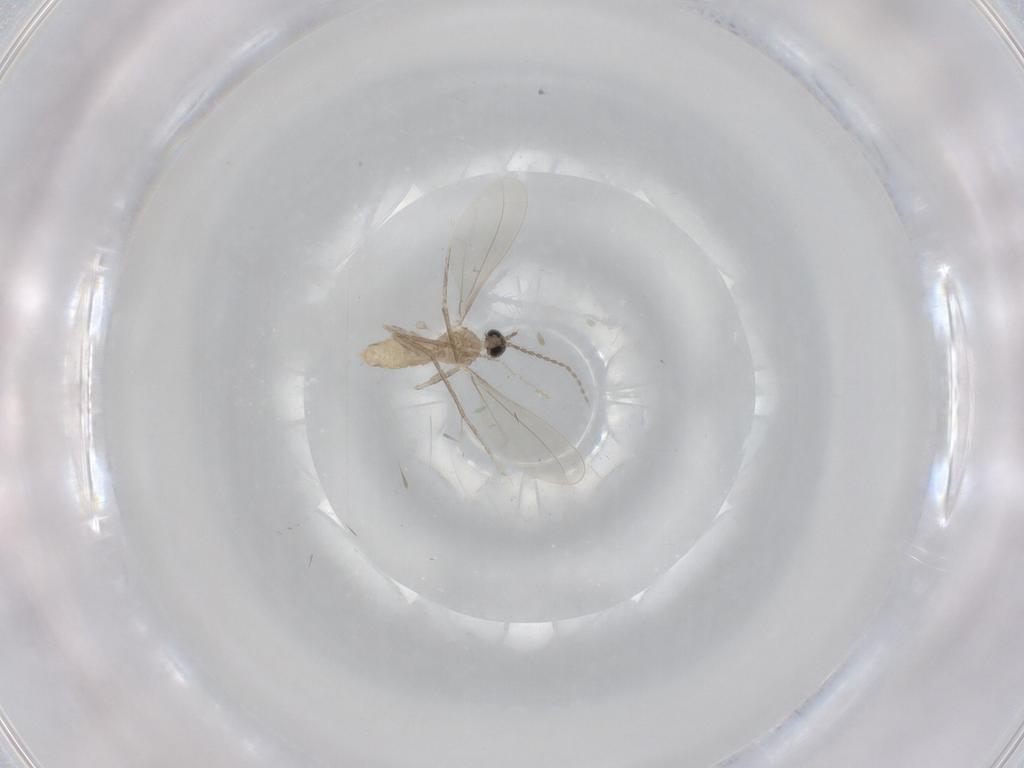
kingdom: Animalia
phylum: Arthropoda
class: Insecta
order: Diptera
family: Cecidomyiidae
